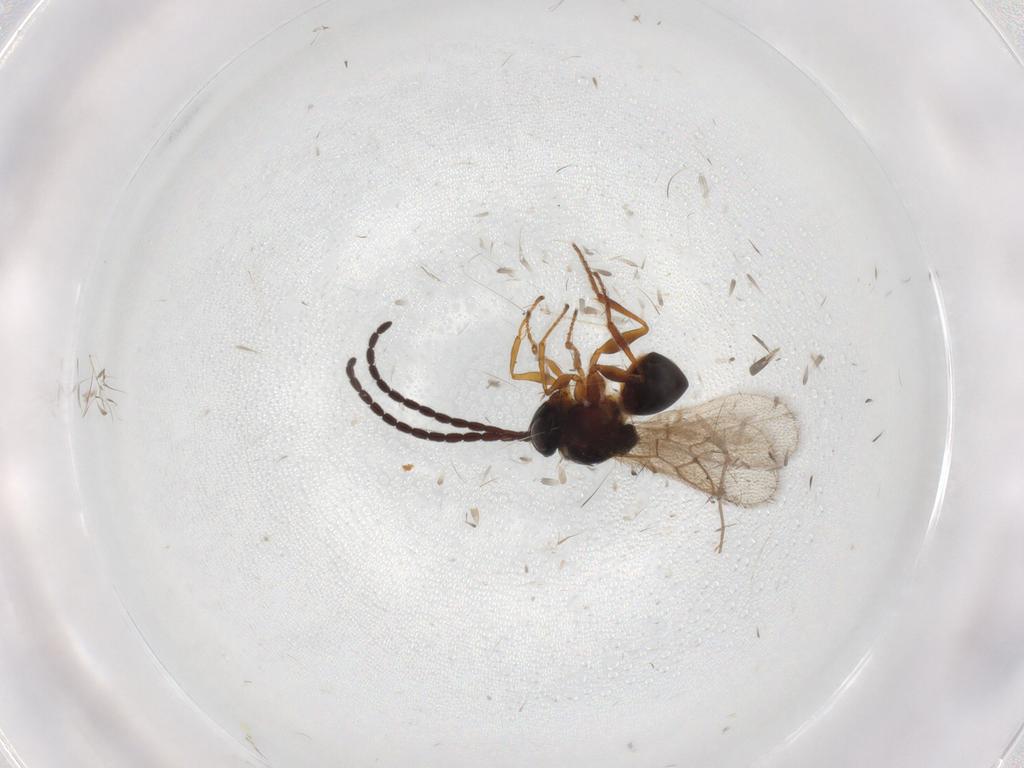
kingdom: Animalia
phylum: Arthropoda
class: Insecta
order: Hymenoptera
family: Figitidae
